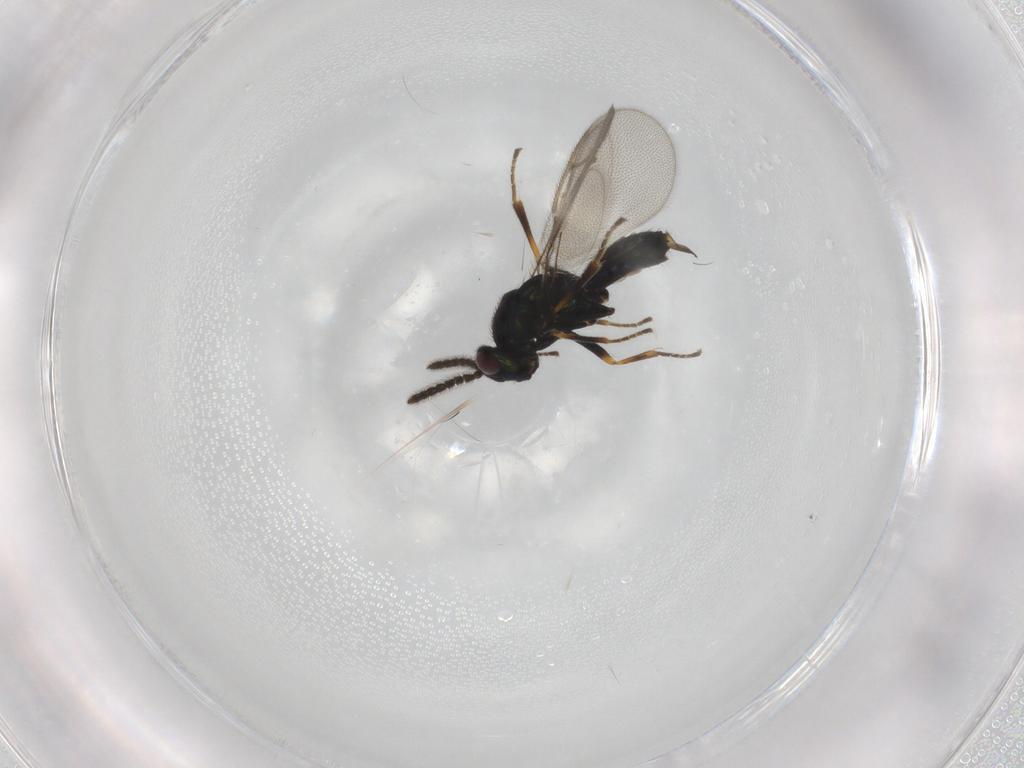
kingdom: Animalia
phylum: Arthropoda
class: Insecta
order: Hymenoptera
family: Pirenidae
